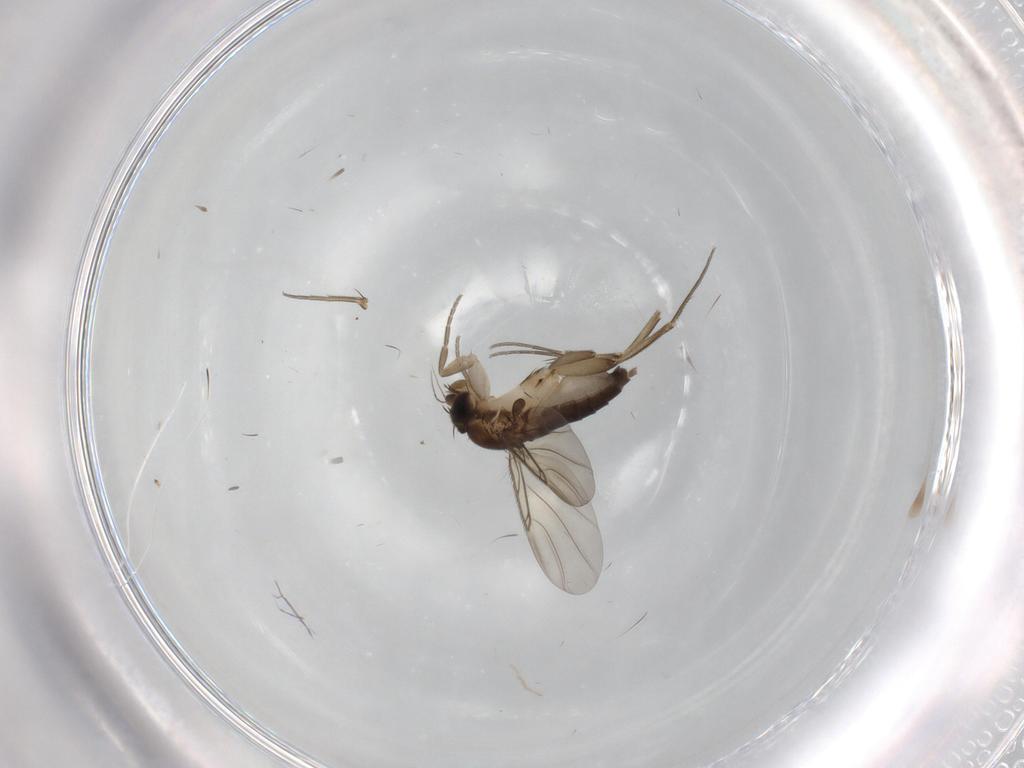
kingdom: Animalia
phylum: Arthropoda
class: Insecta
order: Diptera
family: Phoridae
